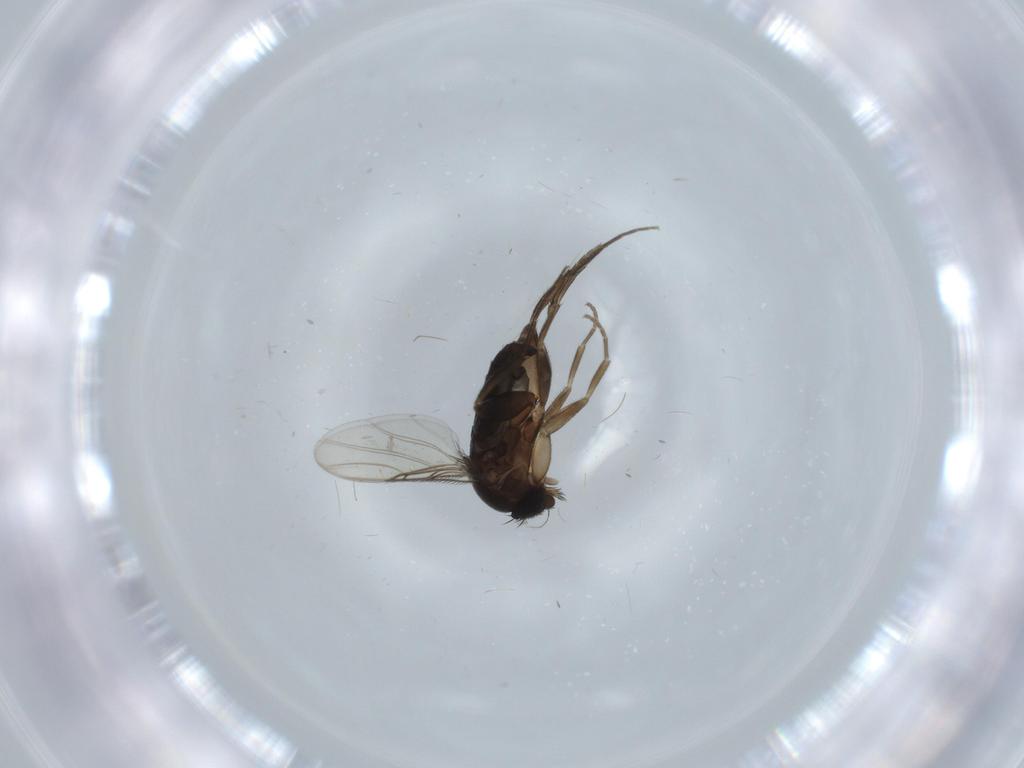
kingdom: Animalia
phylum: Arthropoda
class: Insecta
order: Diptera
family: Phoridae
